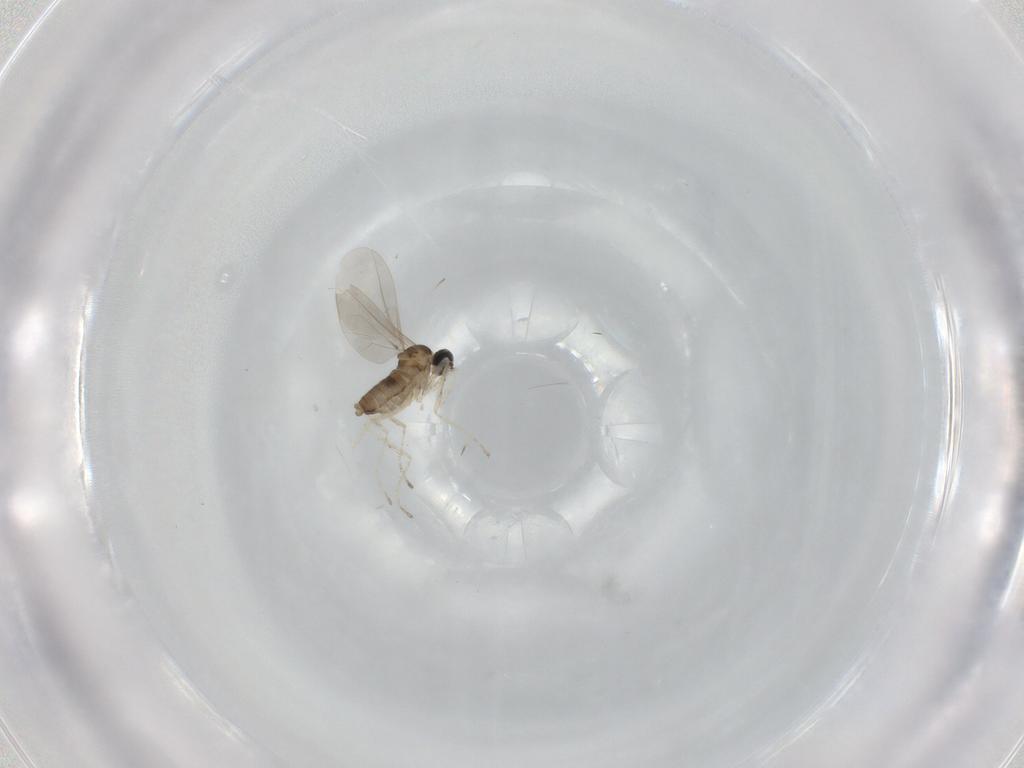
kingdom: Animalia
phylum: Arthropoda
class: Insecta
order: Diptera
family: Cecidomyiidae
